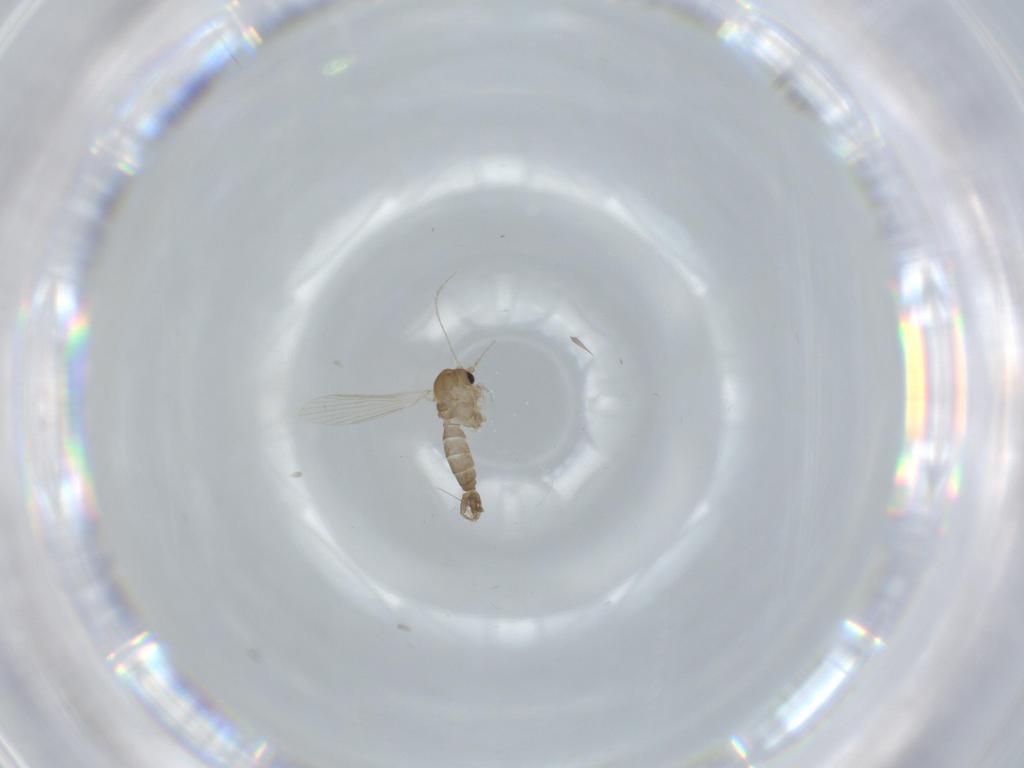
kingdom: Animalia
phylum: Arthropoda
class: Insecta
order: Diptera
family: Psychodidae
